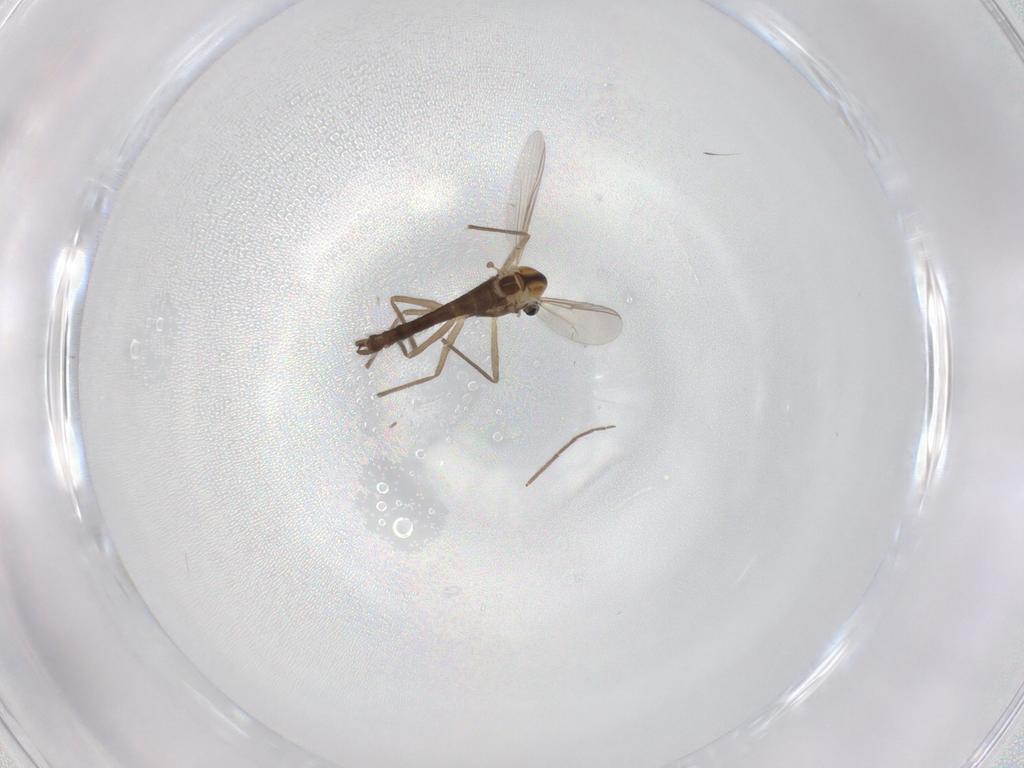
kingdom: Animalia
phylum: Arthropoda
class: Insecta
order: Diptera
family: Chironomidae
